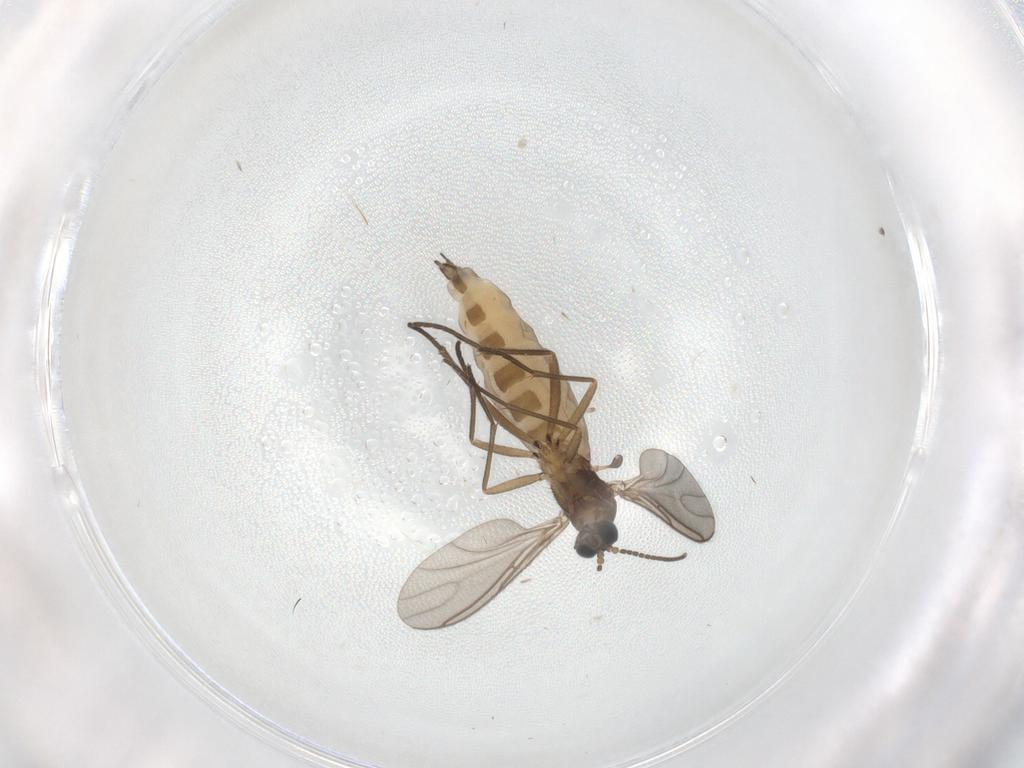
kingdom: Animalia
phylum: Arthropoda
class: Insecta
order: Diptera
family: Sciaridae
